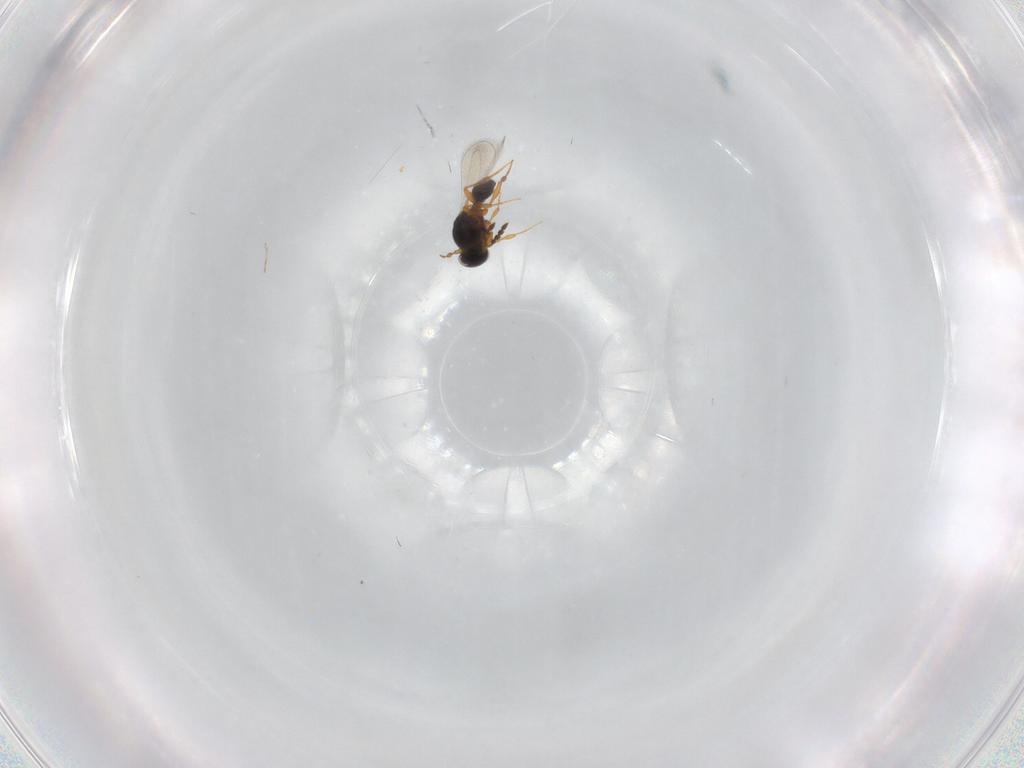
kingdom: Animalia
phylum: Arthropoda
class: Insecta
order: Hymenoptera
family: Platygastridae
